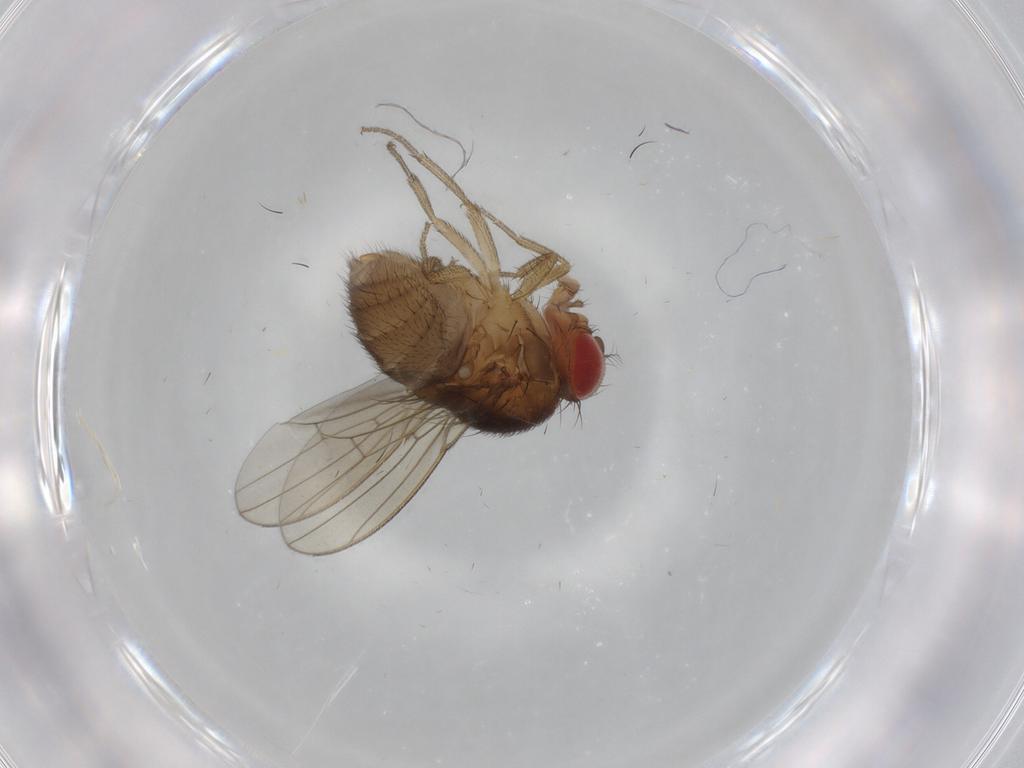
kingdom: Animalia
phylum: Arthropoda
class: Insecta
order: Diptera
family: Drosophilidae
